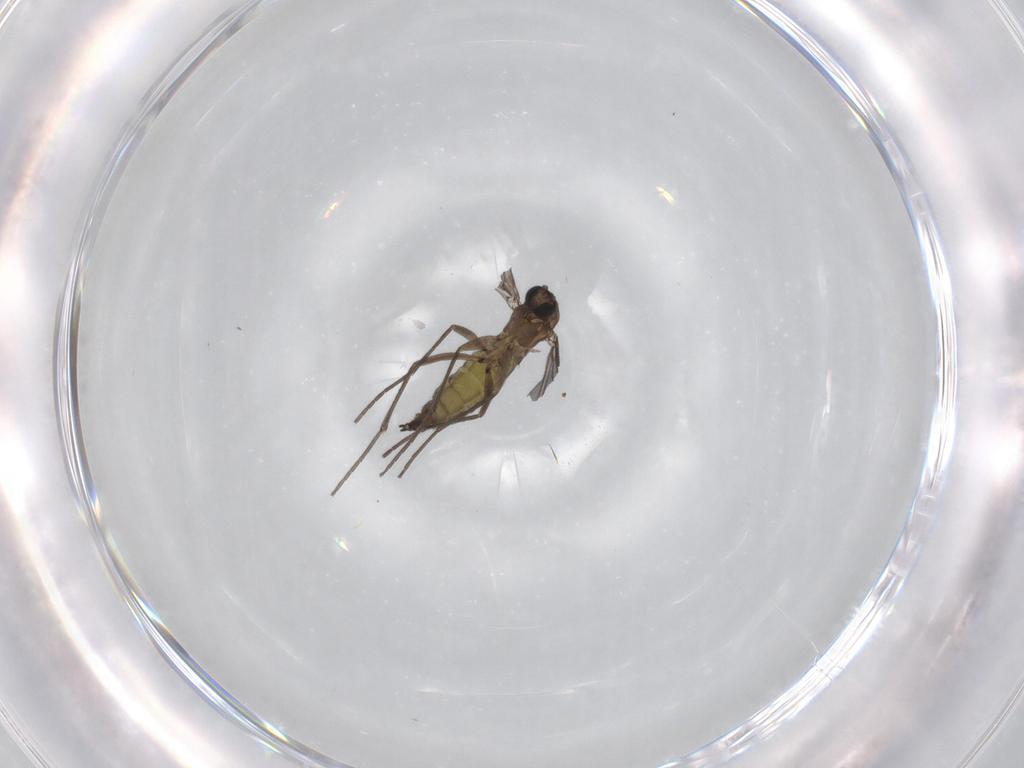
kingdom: Animalia
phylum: Arthropoda
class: Insecta
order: Diptera
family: Sciaridae
